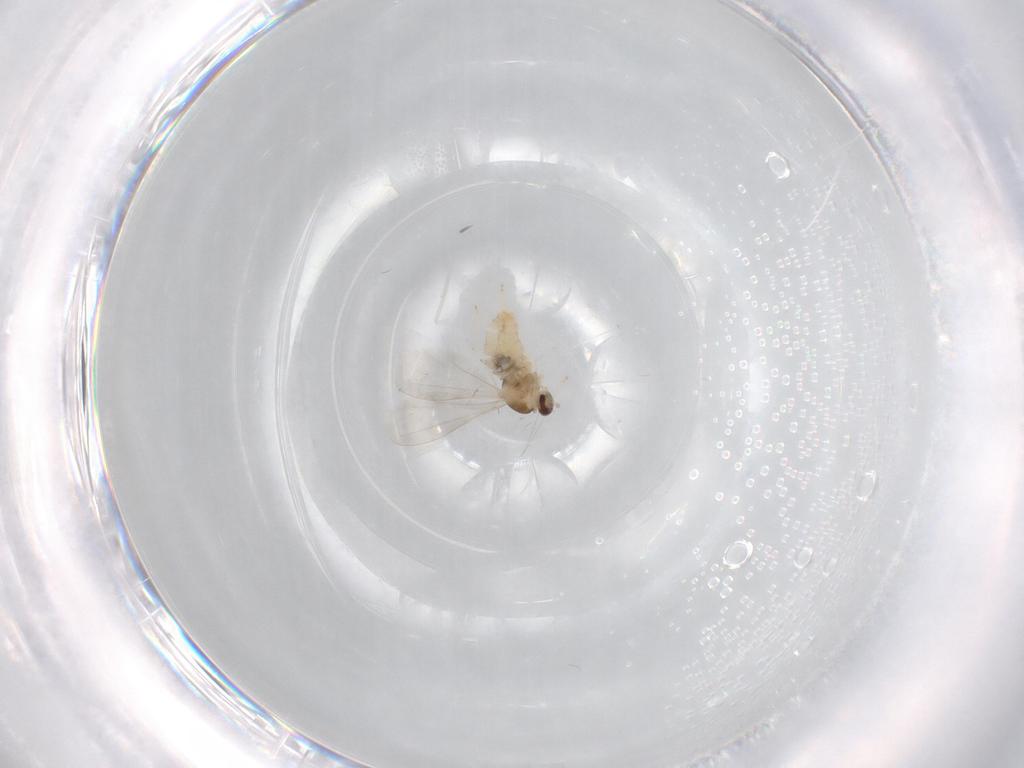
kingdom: Animalia
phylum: Arthropoda
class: Insecta
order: Diptera
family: Cecidomyiidae
